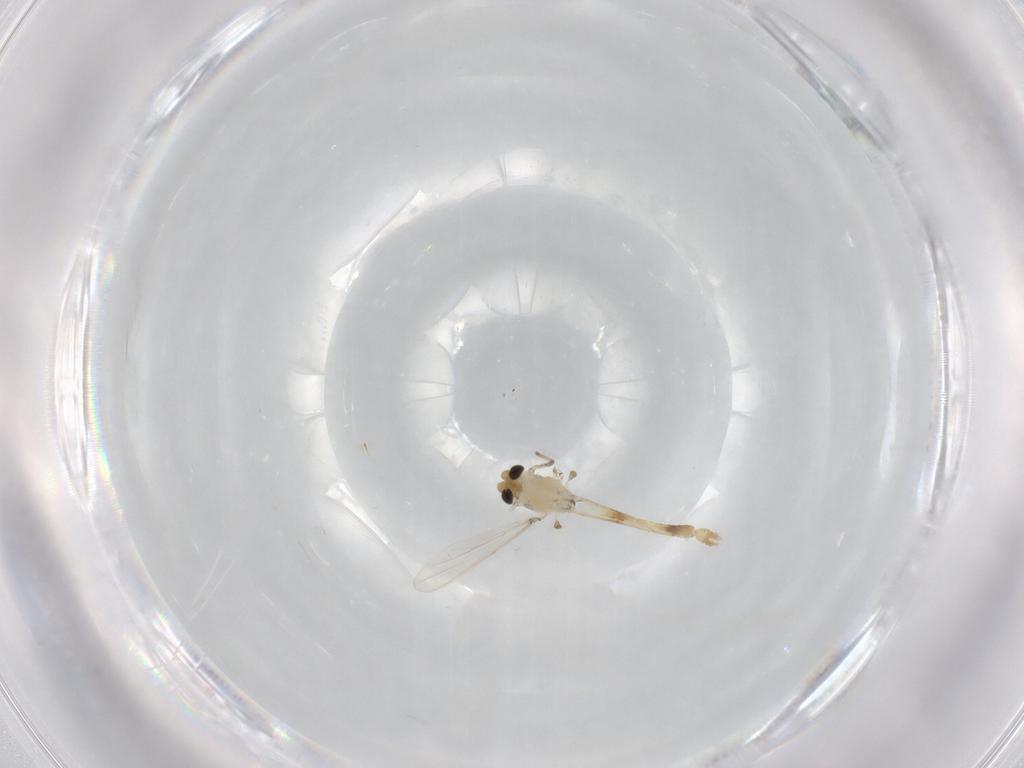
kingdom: Animalia
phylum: Arthropoda
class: Insecta
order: Diptera
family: Chironomidae
